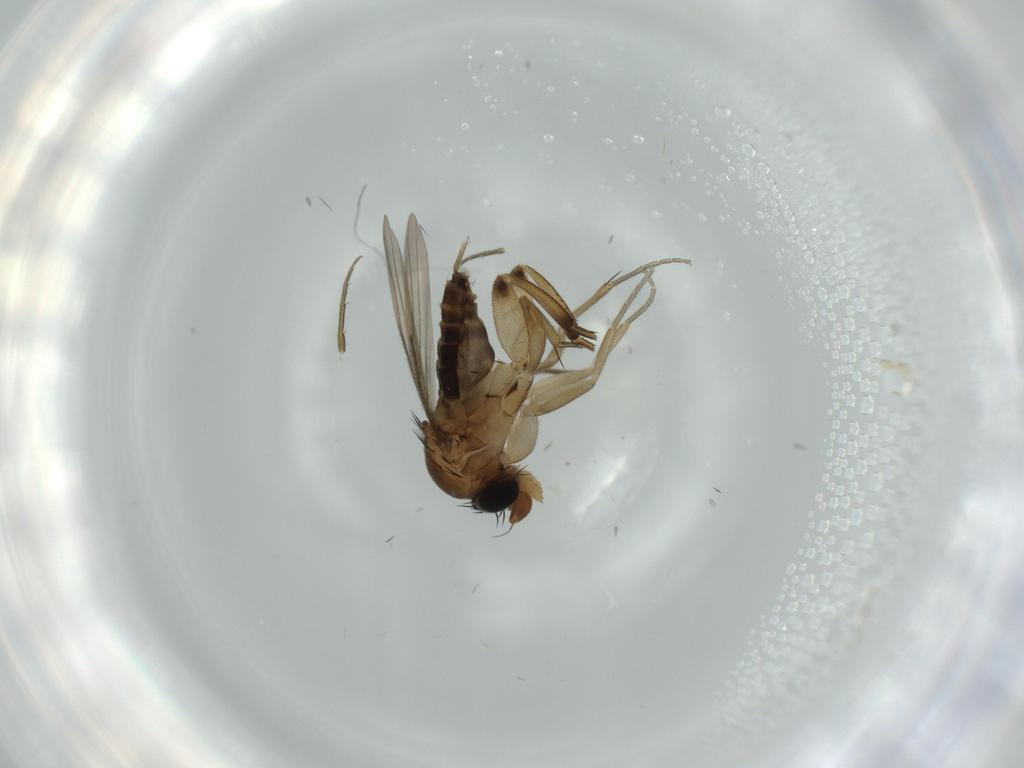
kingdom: Animalia
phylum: Arthropoda
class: Insecta
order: Diptera
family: Phoridae
